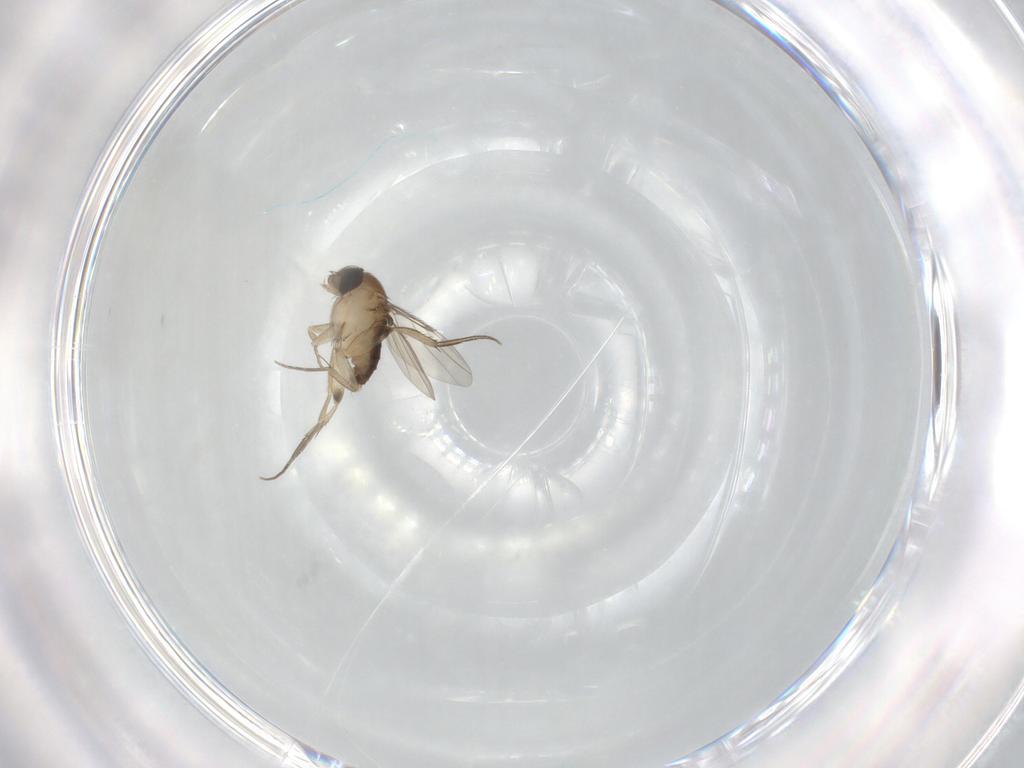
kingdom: Animalia
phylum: Arthropoda
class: Insecta
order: Diptera
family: Phoridae
